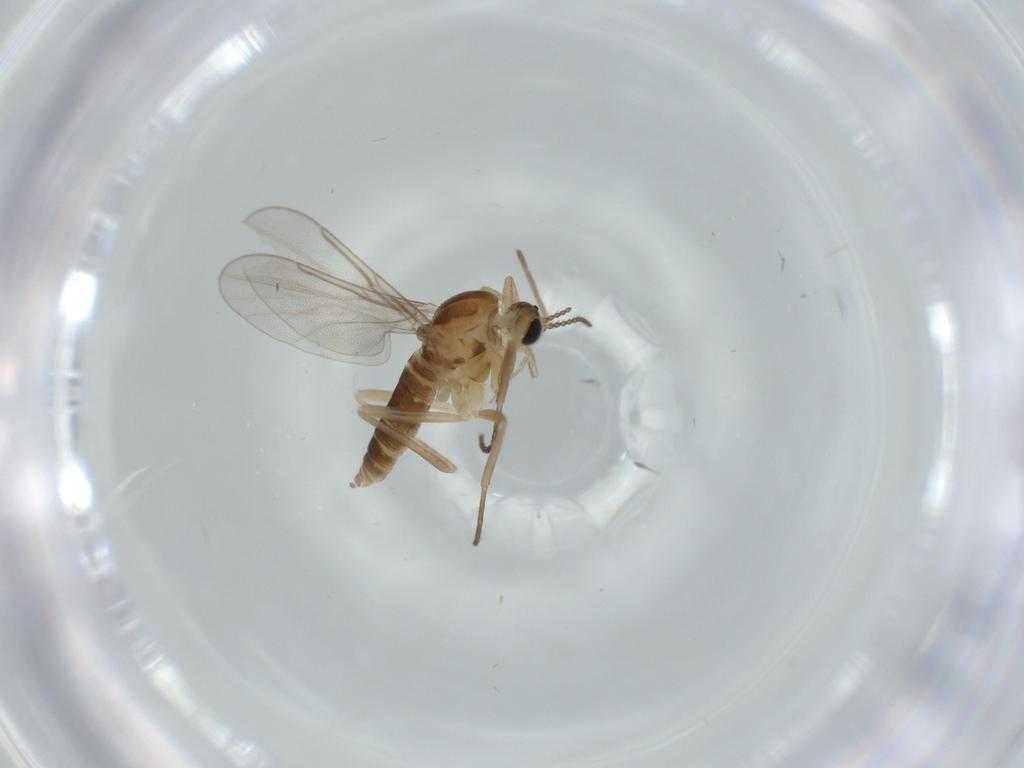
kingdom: Animalia
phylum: Arthropoda
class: Insecta
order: Diptera
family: Cecidomyiidae
